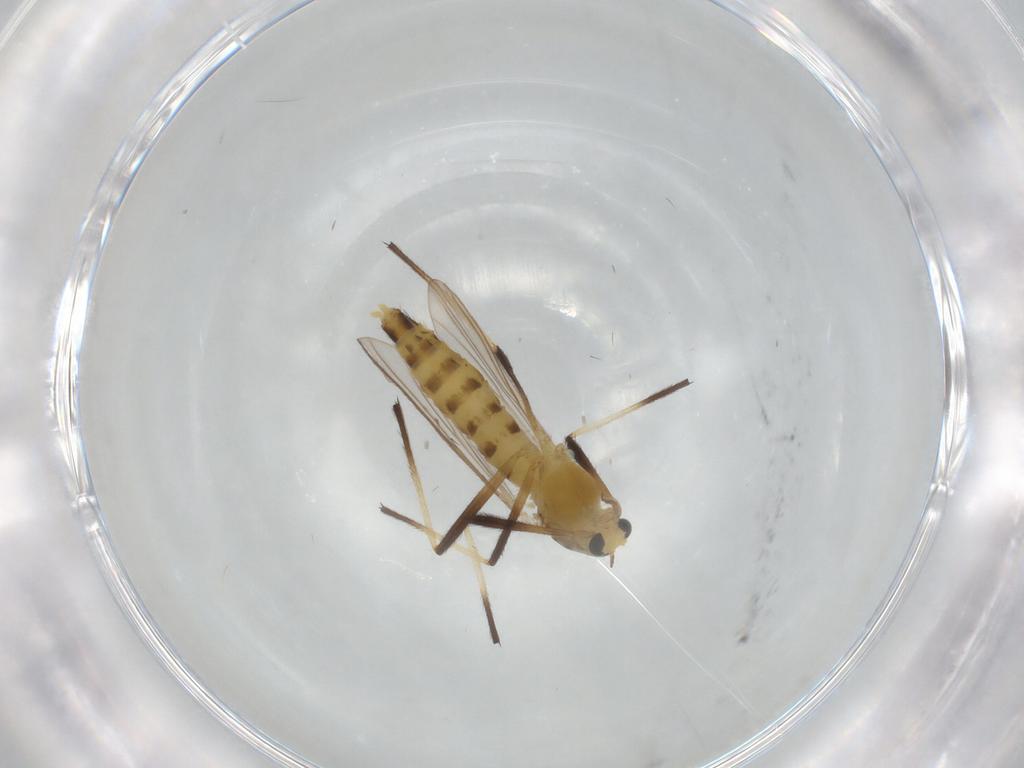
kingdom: Animalia
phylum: Arthropoda
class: Insecta
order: Diptera
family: Chironomidae
